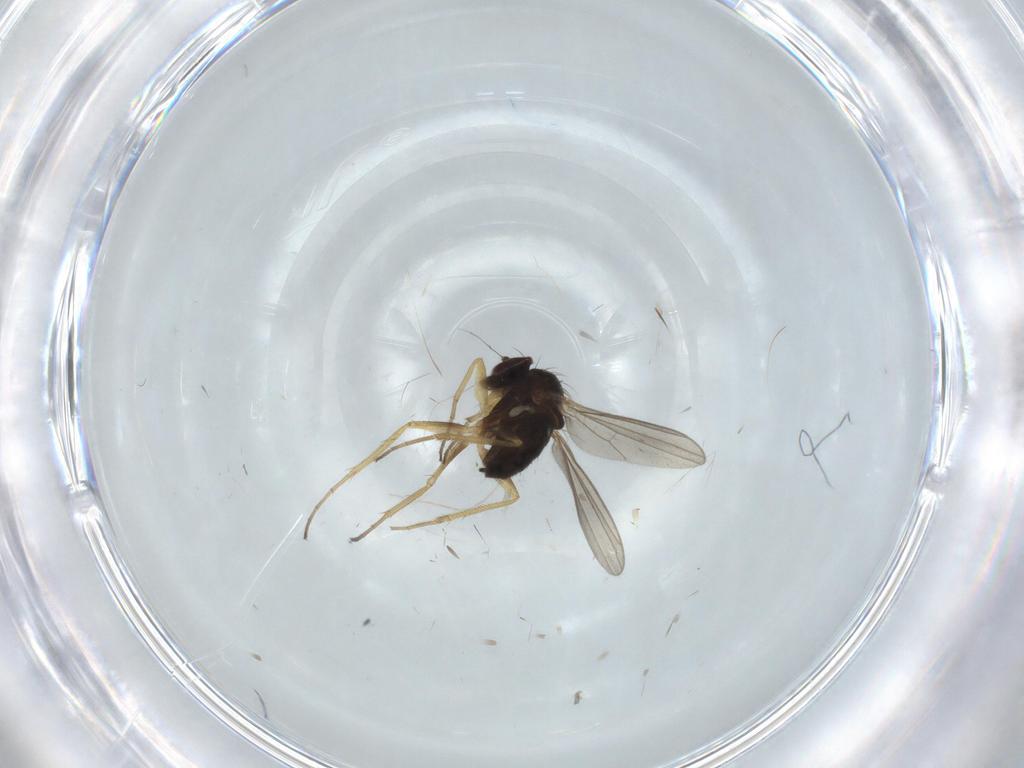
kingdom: Animalia
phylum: Arthropoda
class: Insecta
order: Diptera
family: Dolichopodidae
